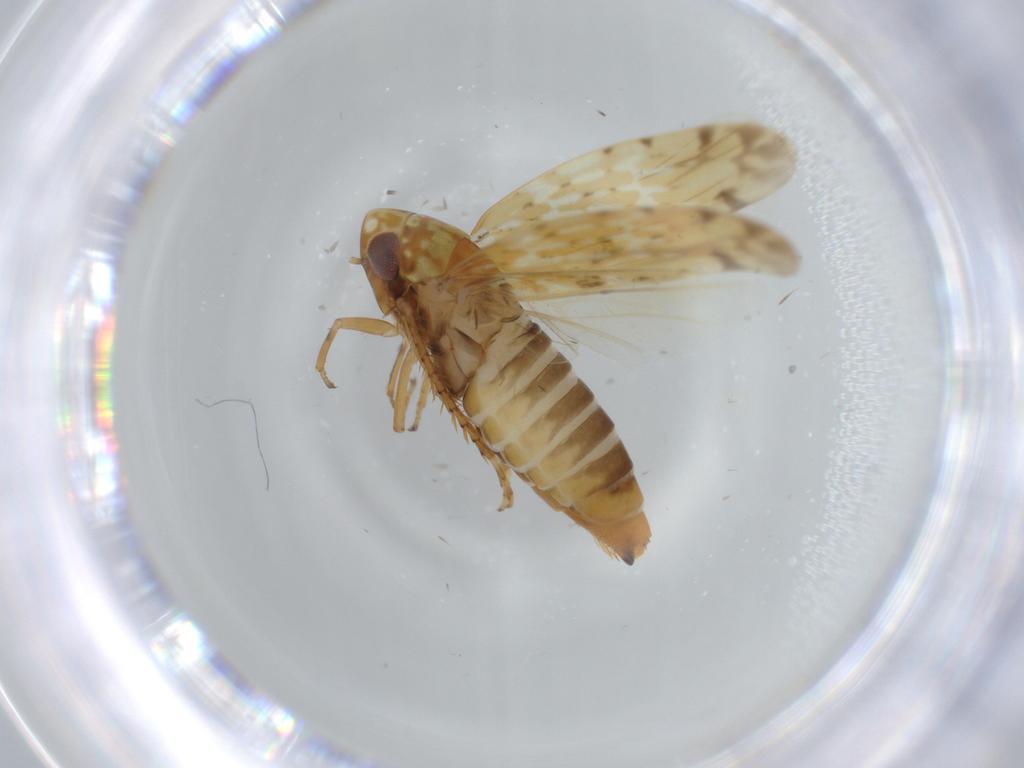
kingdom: Animalia
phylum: Arthropoda
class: Insecta
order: Hemiptera
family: Cicadellidae
